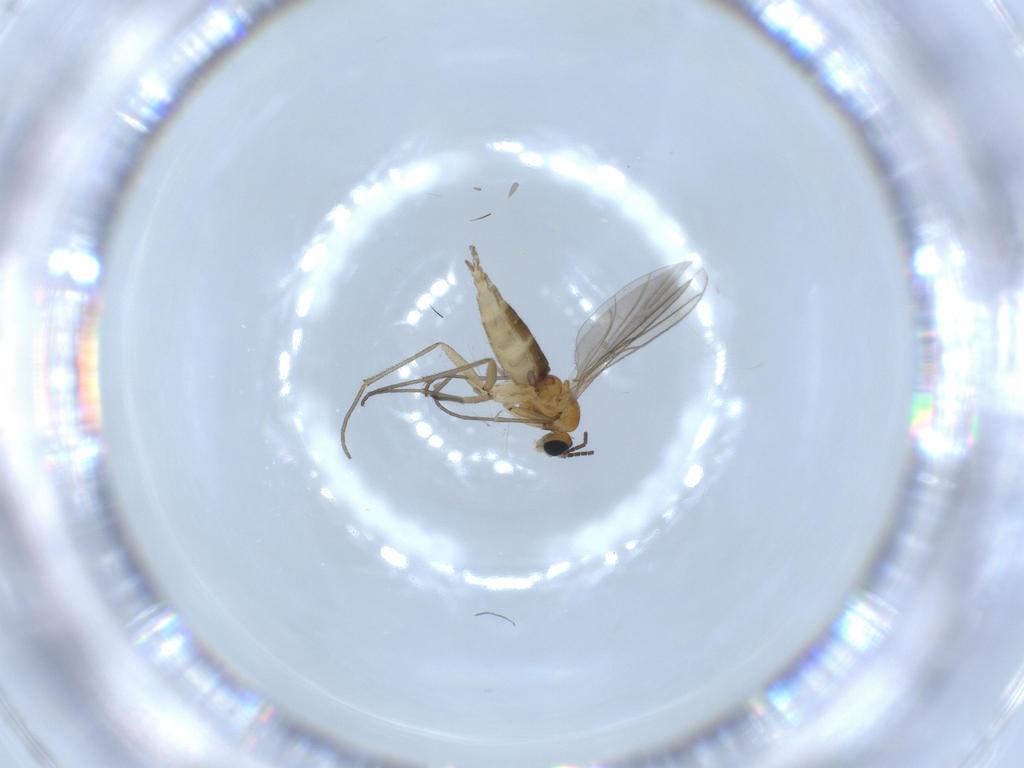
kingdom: Animalia
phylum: Arthropoda
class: Insecta
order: Diptera
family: Sciaridae
